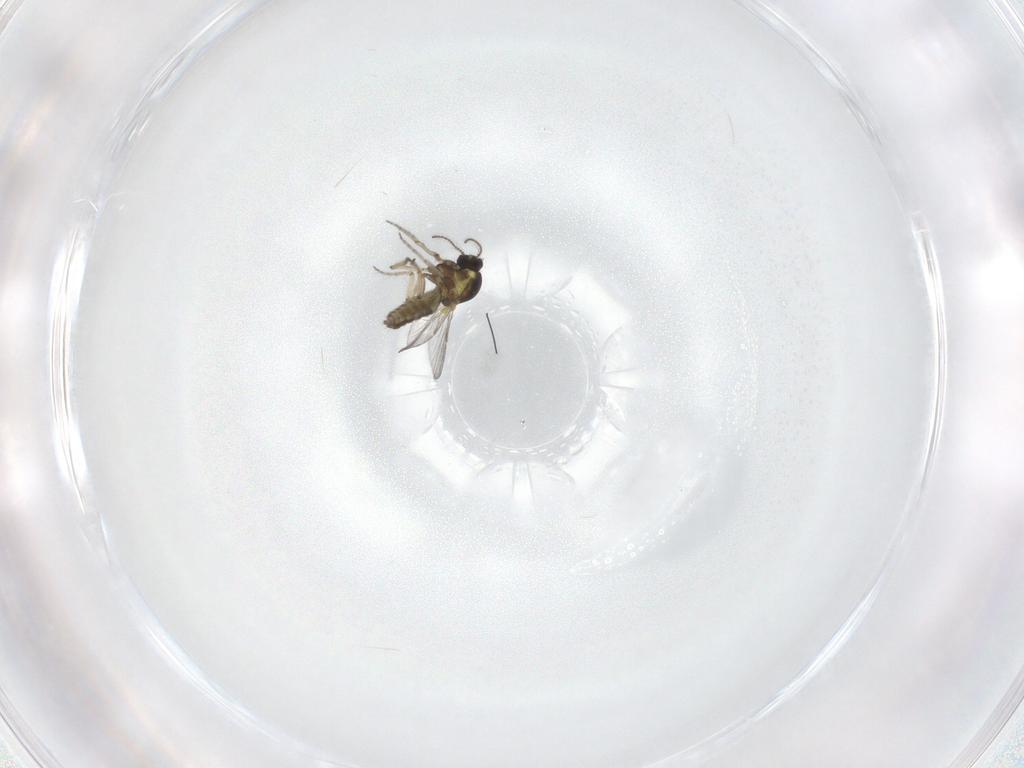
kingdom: Animalia
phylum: Arthropoda
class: Insecta
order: Diptera
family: Ceratopogonidae
